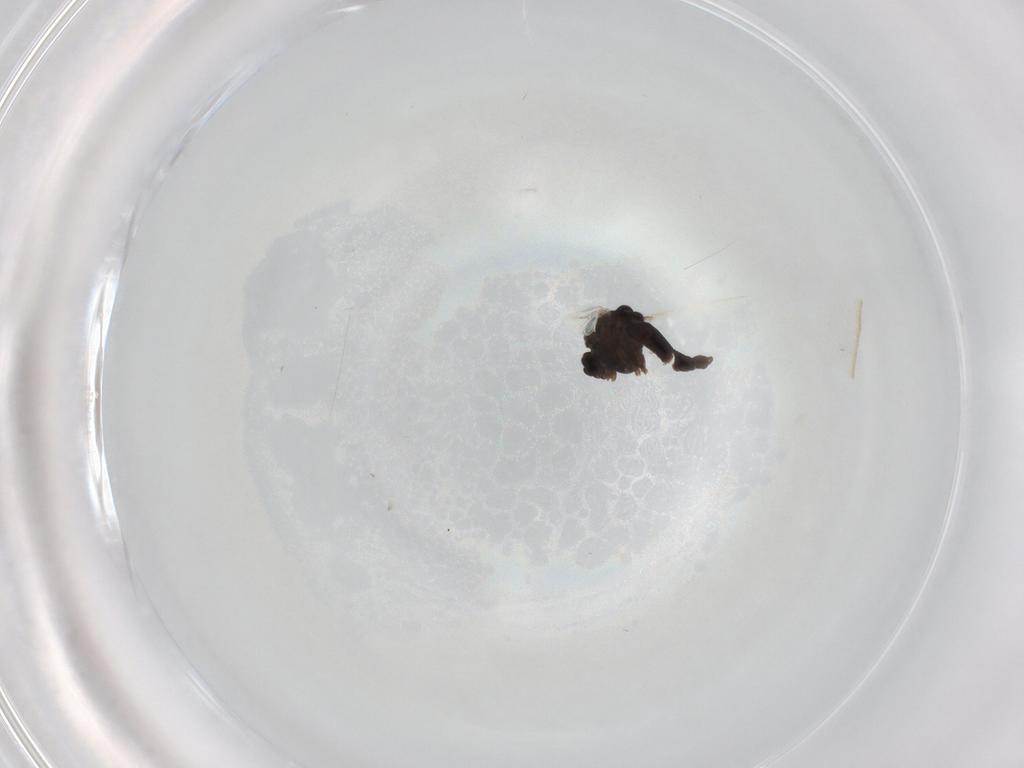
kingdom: Animalia
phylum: Arthropoda
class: Insecta
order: Diptera
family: Chironomidae
